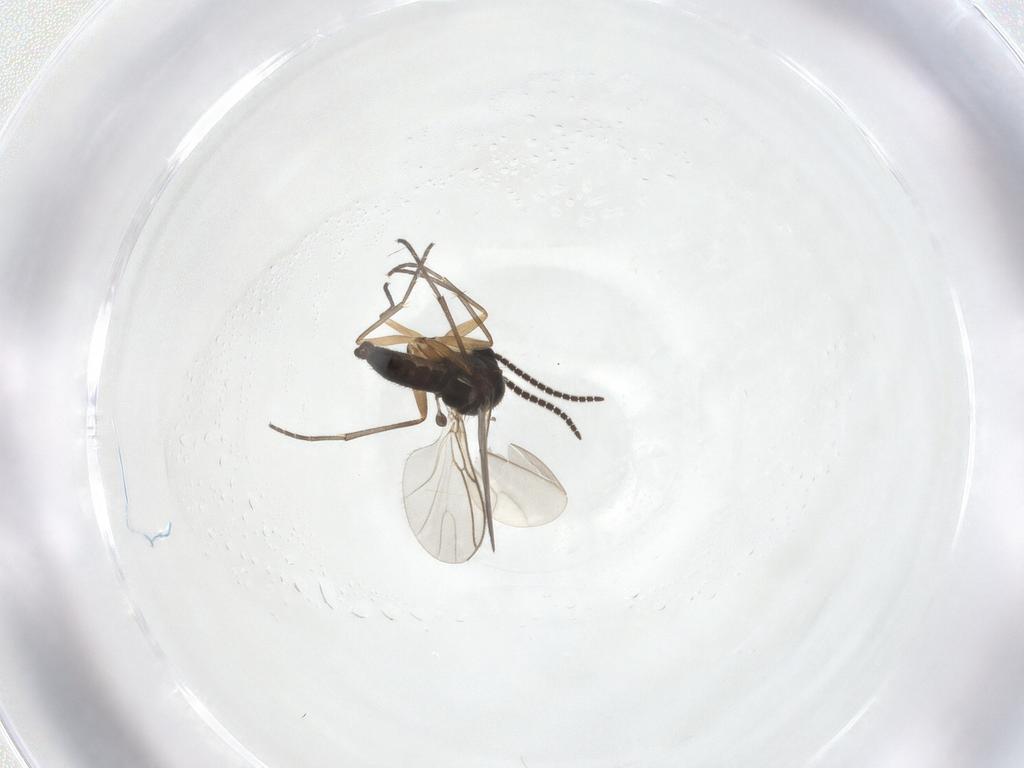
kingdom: Animalia
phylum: Arthropoda
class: Insecta
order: Diptera
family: Sciaridae
